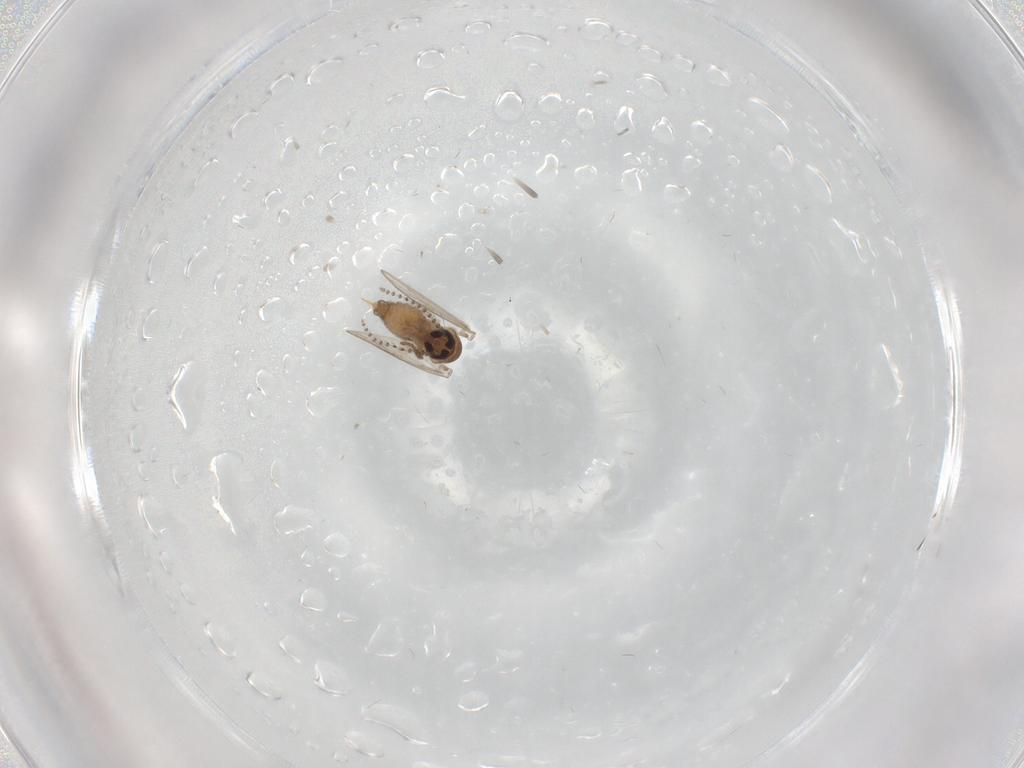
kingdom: Animalia
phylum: Arthropoda
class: Insecta
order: Diptera
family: Psychodidae
